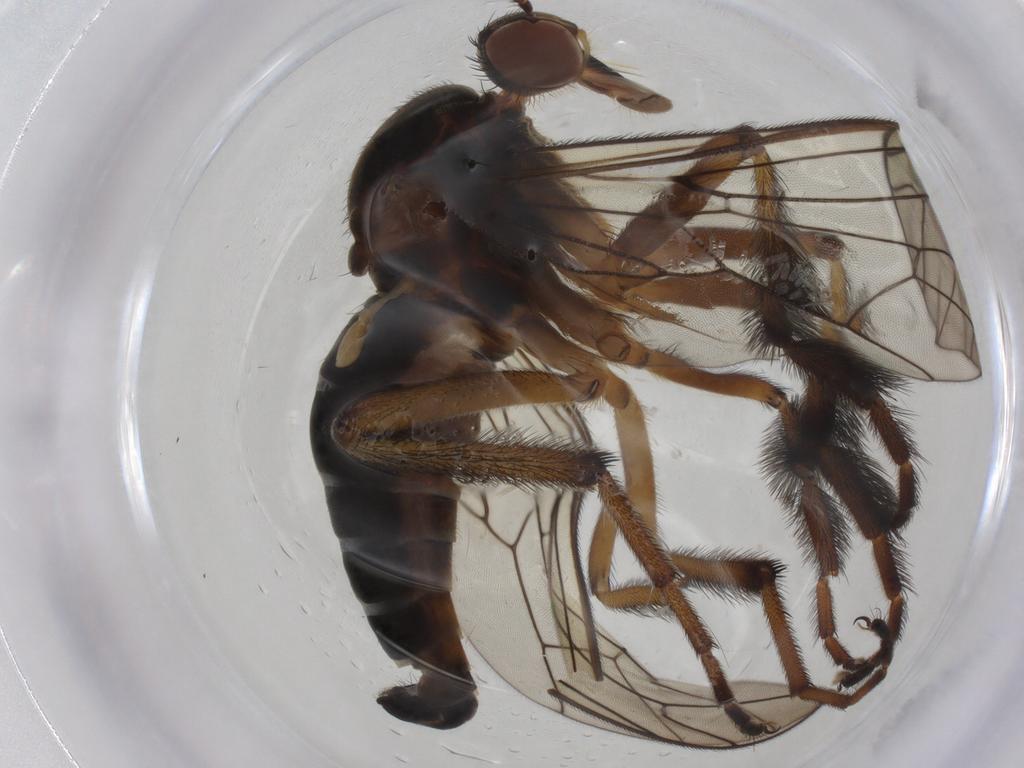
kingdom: Animalia
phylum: Arthropoda
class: Insecta
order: Diptera
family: Empididae
